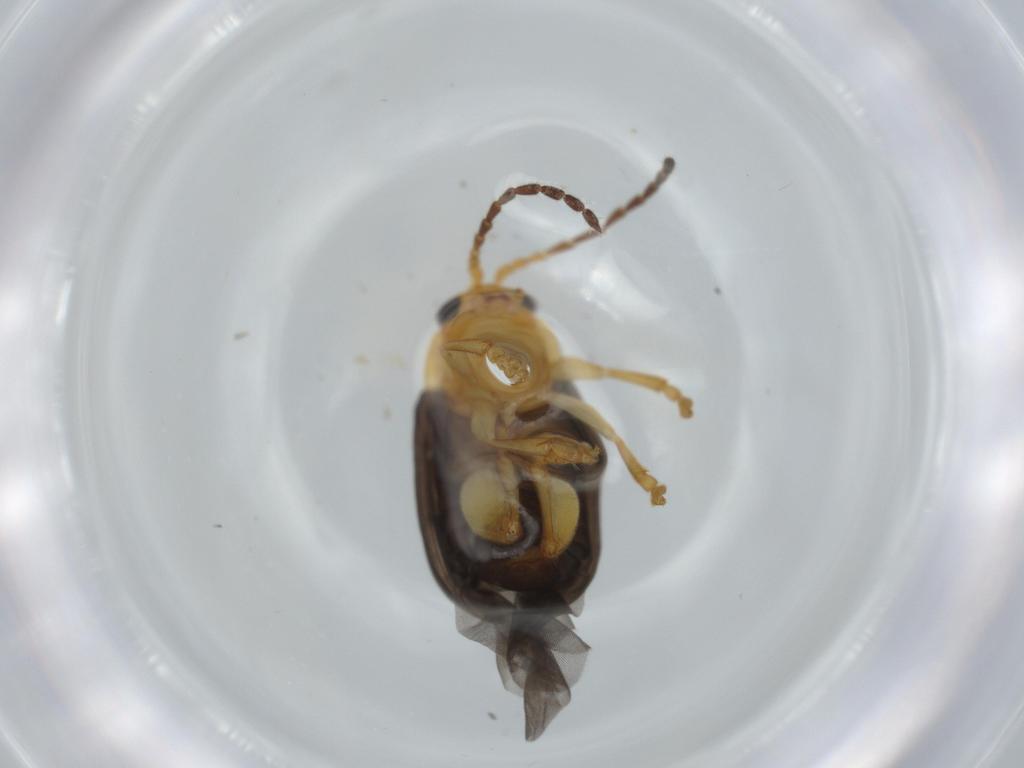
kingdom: Animalia
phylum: Arthropoda
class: Insecta
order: Coleoptera
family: Chrysomelidae
